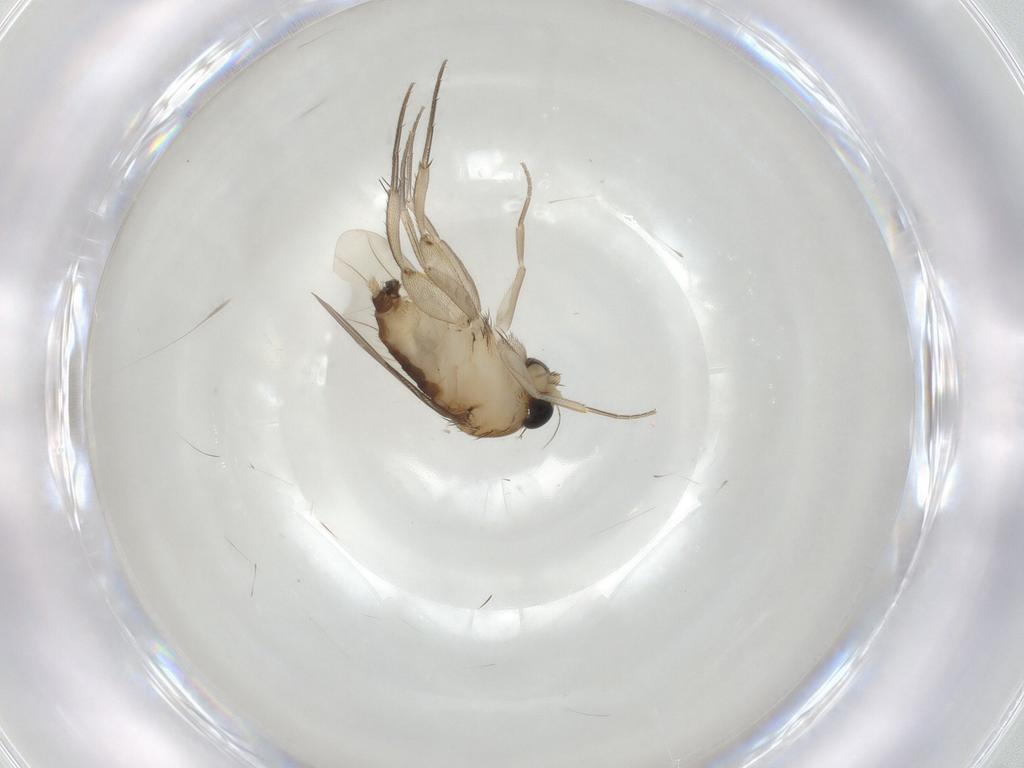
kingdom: Animalia
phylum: Arthropoda
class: Insecta
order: Diptera
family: Phoridae
